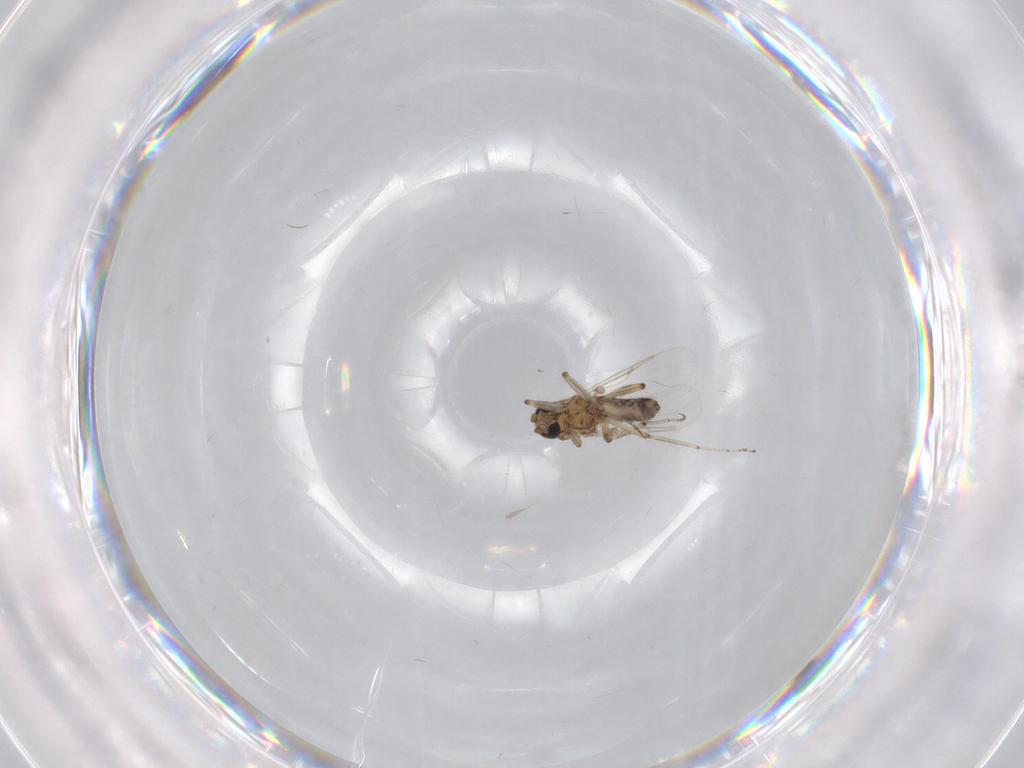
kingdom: Animalia
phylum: Arthropoda
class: Insecta
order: Diptera
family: Ceratopogonidae
